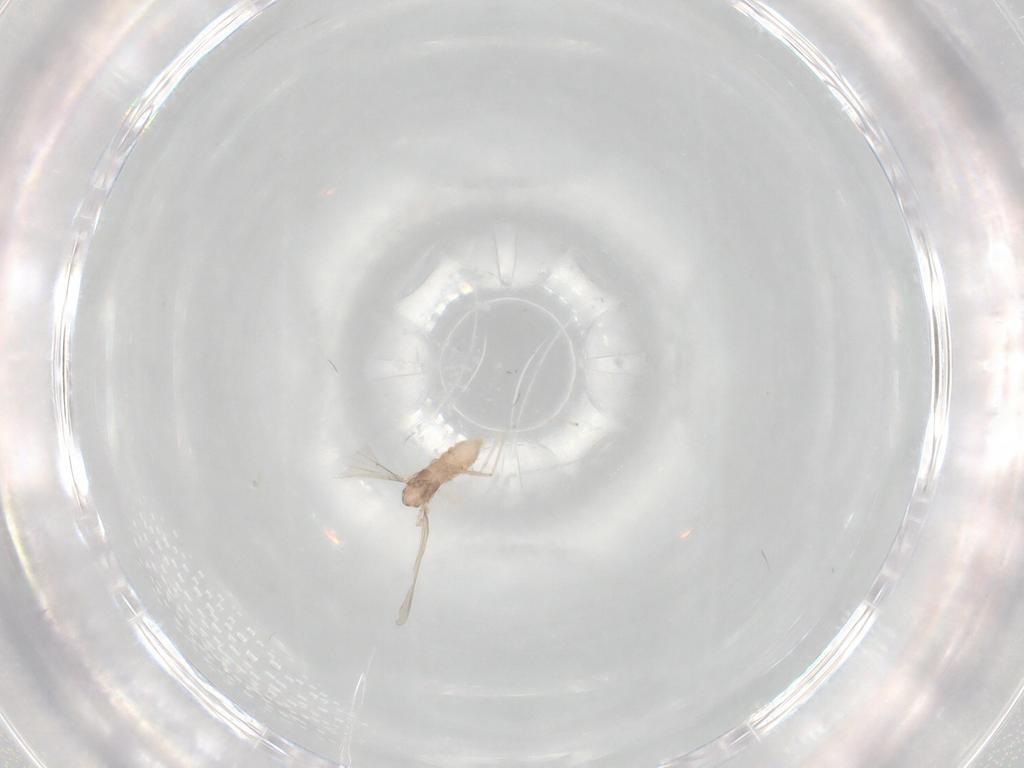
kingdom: Animalia
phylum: Arthropoda
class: Insecta
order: Diptera
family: Cecidomyiidae
